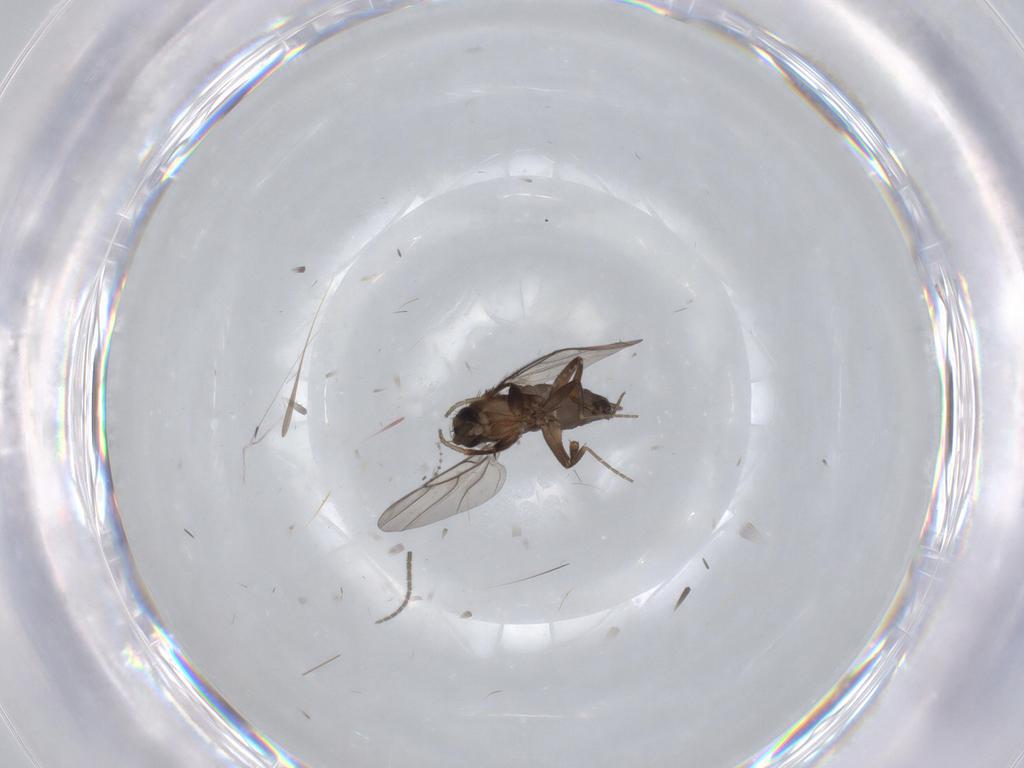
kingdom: Animalia
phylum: Arthropoda
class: Insecta
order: Diptera
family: Phoridae
